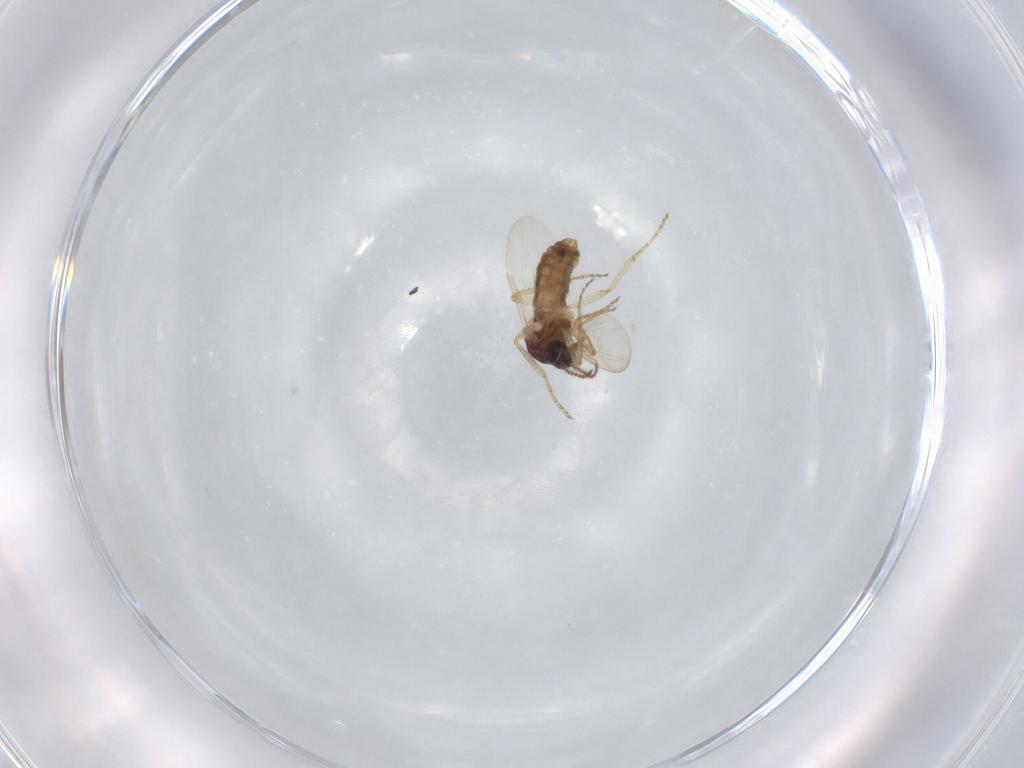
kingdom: Animalia
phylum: Arthropoda
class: Insecta
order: Diptera
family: Ceratopogonidae
